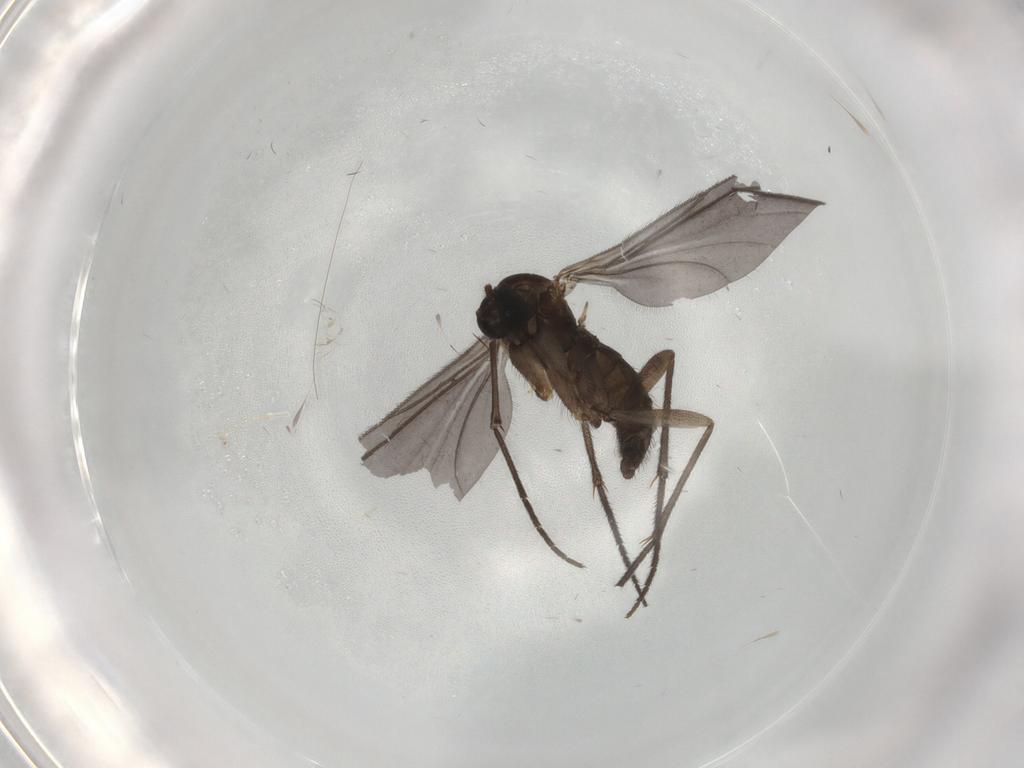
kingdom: Animalia
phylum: Arthropoda
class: Insecta
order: Diptera
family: Sciaridae
